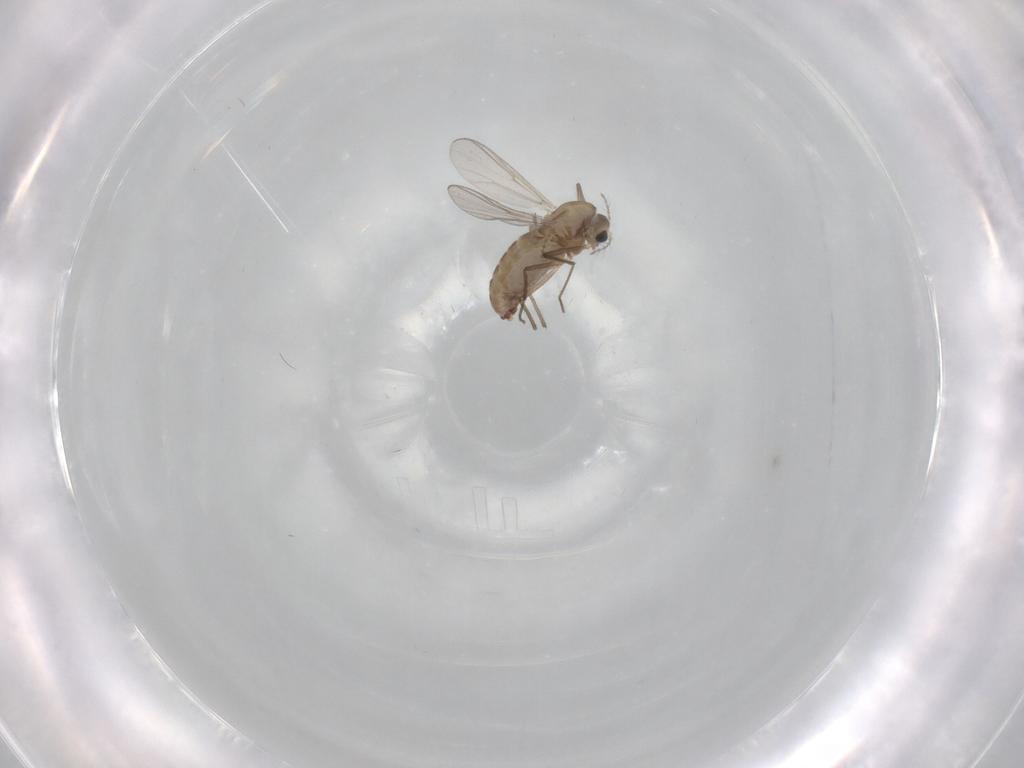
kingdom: Animalia
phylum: Arthropoda
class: Insecta
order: Diptera
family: Chironomidae
